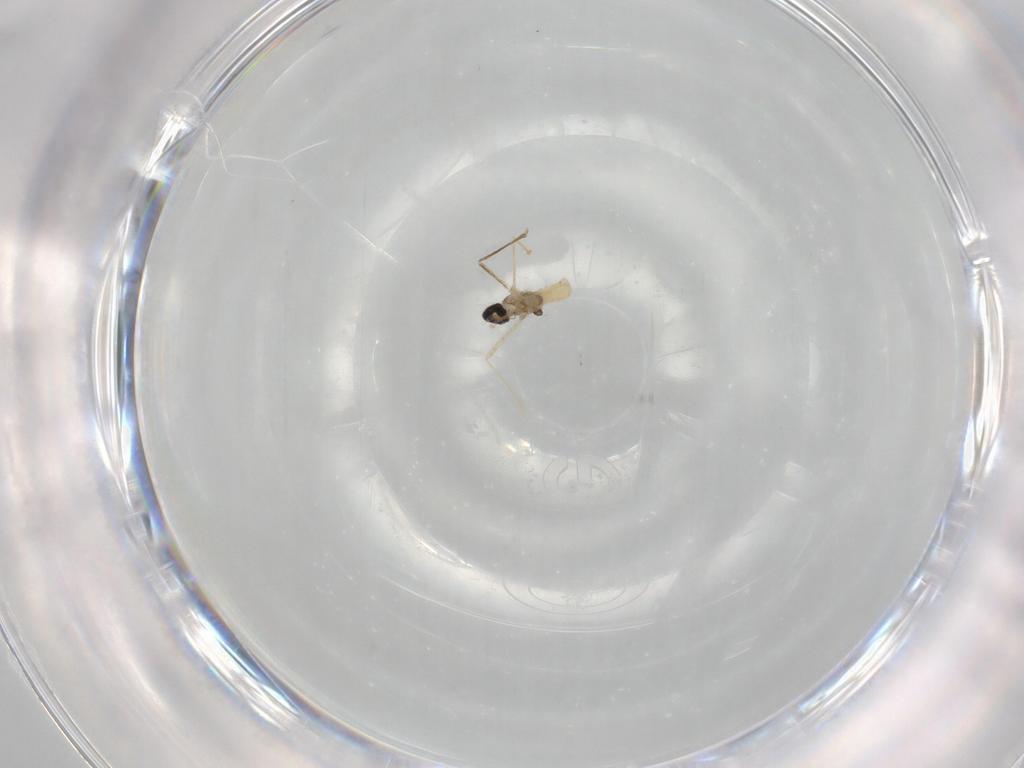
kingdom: Animalia
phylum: Arthropoda
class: Insecta
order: Diptera
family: Cecidomyiidae
